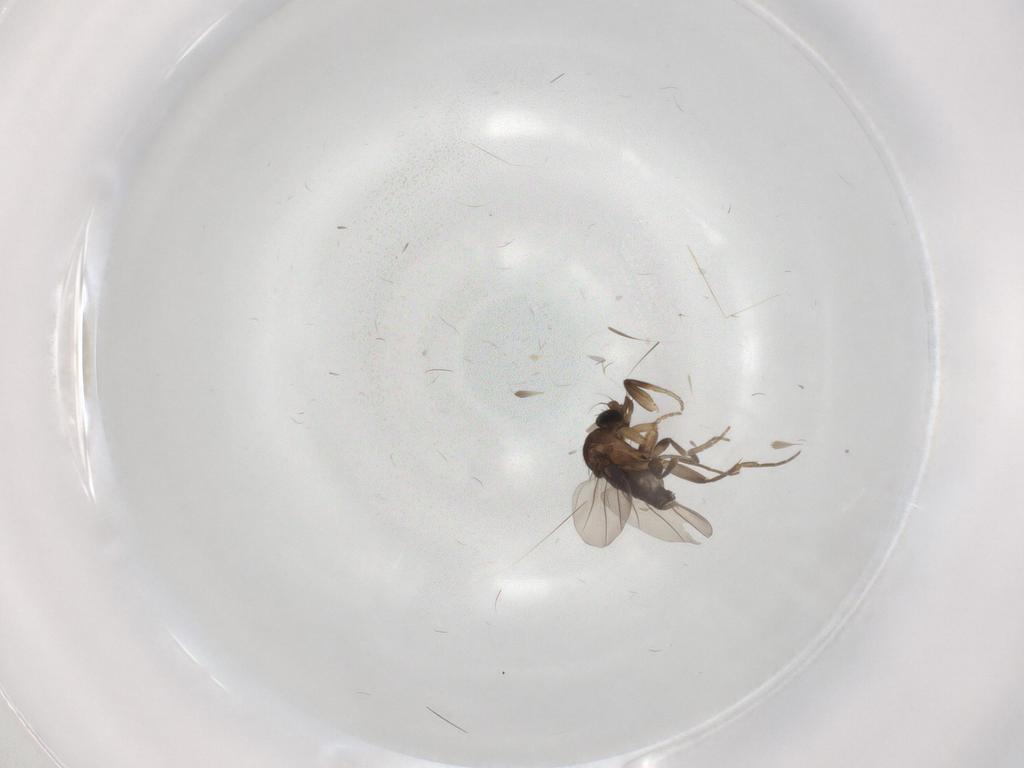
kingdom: Animalia
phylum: Arthropoda
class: Insecta
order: Diptera
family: Phoridae
